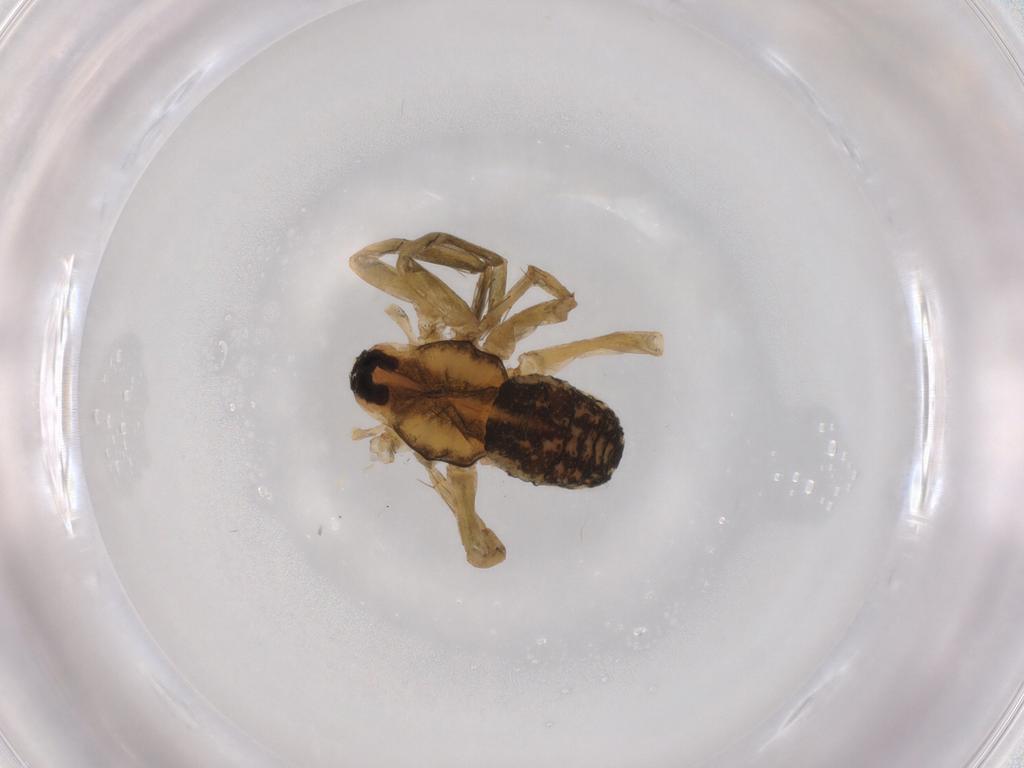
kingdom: Animalia
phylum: Arthropoda
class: Arachnida
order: Araneae
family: Lycosidae
